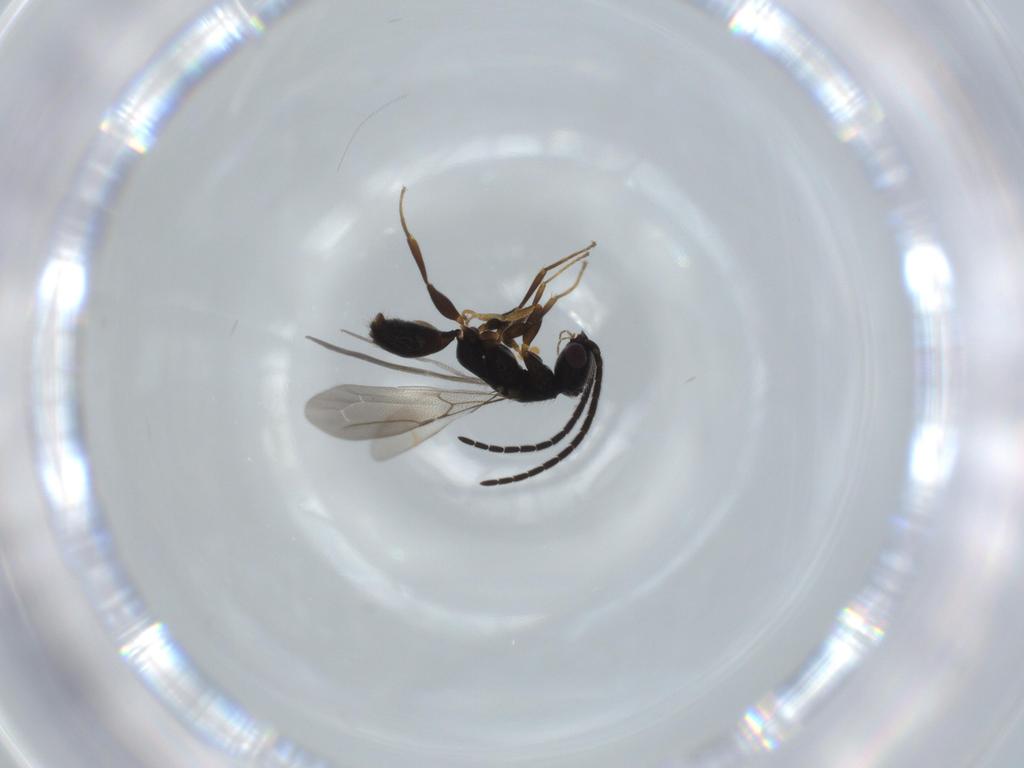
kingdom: Animalia
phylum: Arthropoda
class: Insecta
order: Hymenoptera
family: Bethylidae
